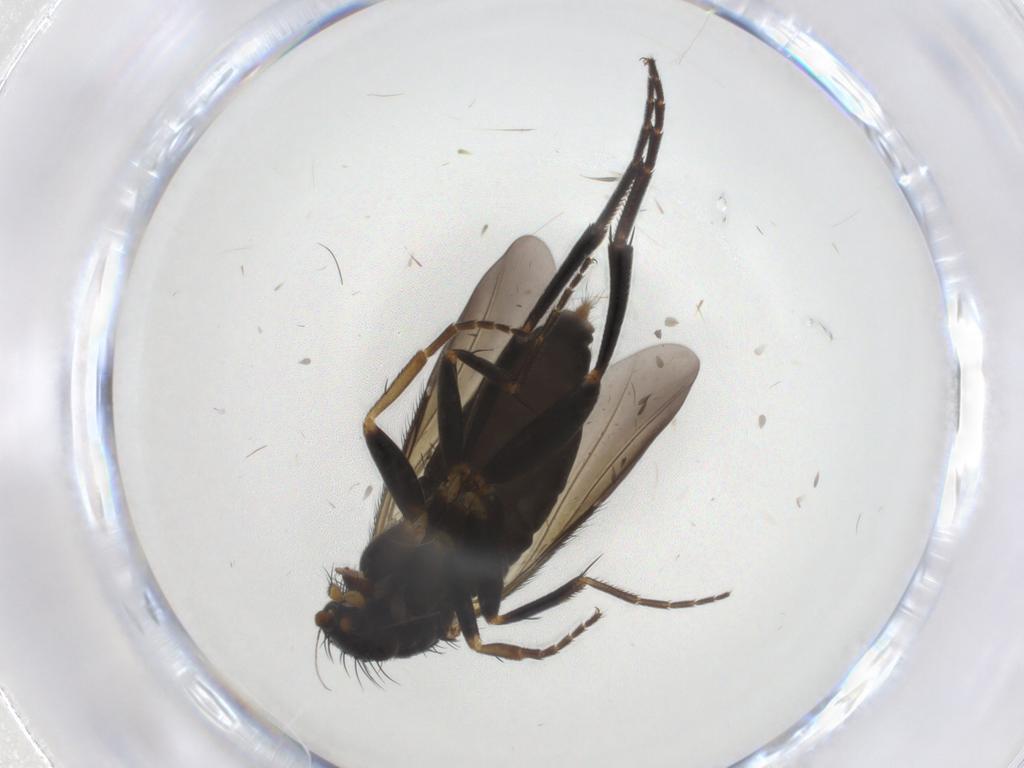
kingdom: Animalia
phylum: Arthropoda
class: Insecta
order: Diptera
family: Phoridae
